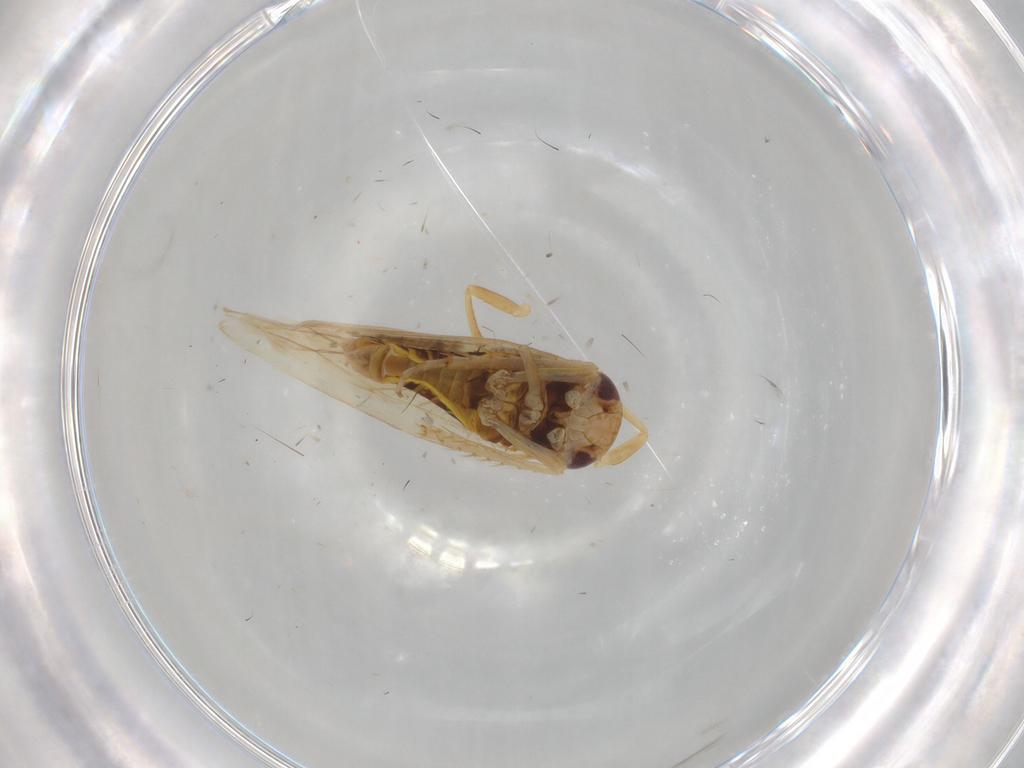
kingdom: Animalia
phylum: Arthropoda
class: Insecta
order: Hemiptera
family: Cicadellidae
